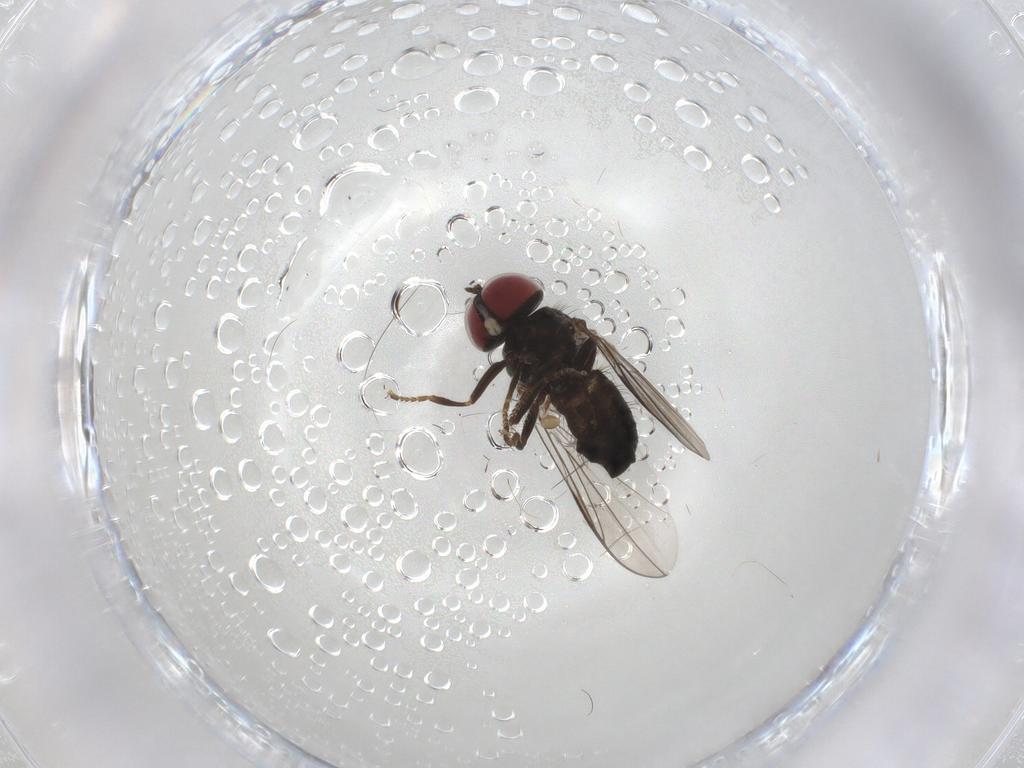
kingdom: Animalia
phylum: Arthropoda
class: Insecta
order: Diptera
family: Pipunculidae
